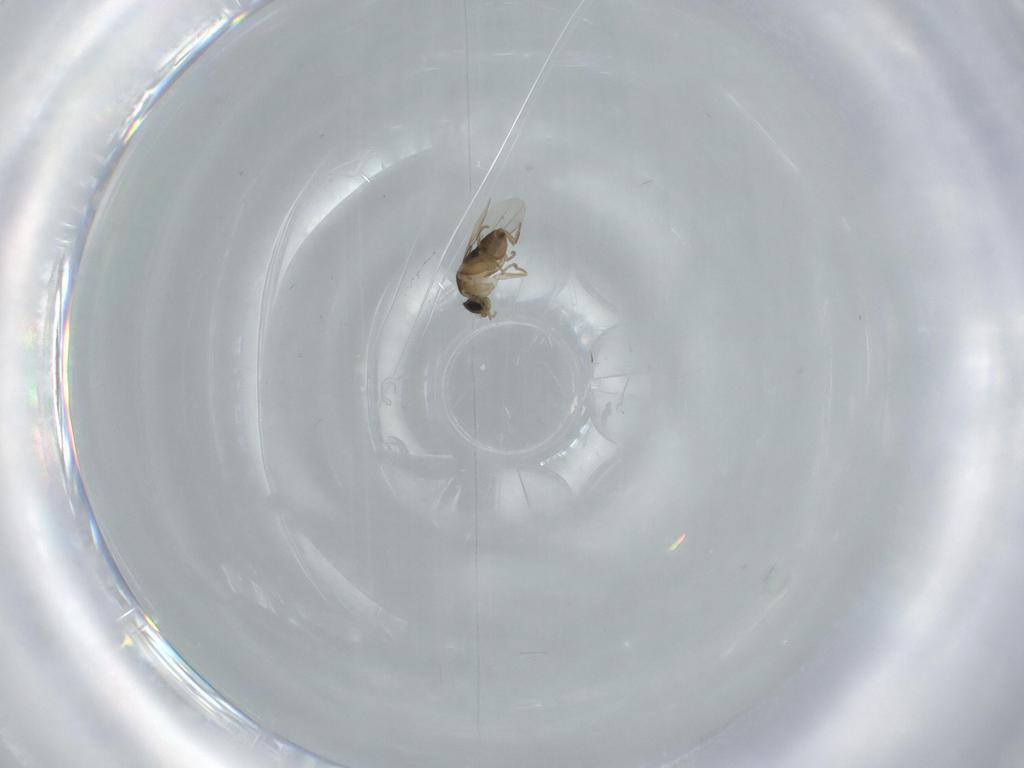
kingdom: Animalia
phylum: Arthropoda
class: Insecta
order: Diptera
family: Ceratopogonidae
